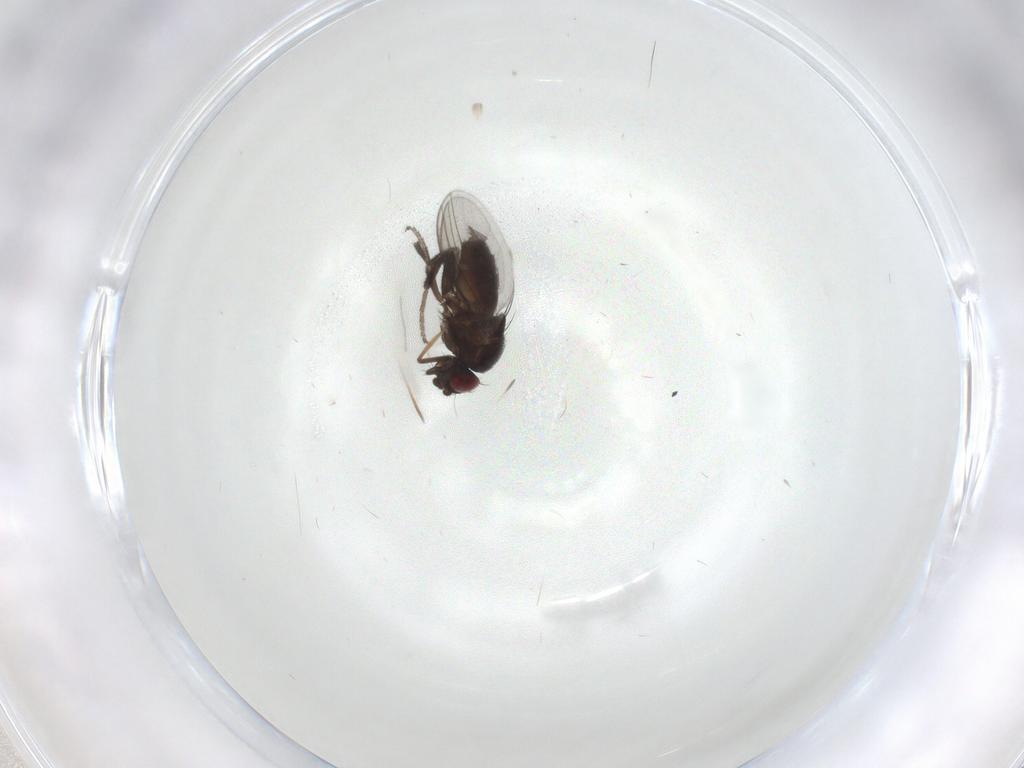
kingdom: Animalia
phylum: Arthropoda
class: Insecta
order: Diptera
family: Milichiidae
